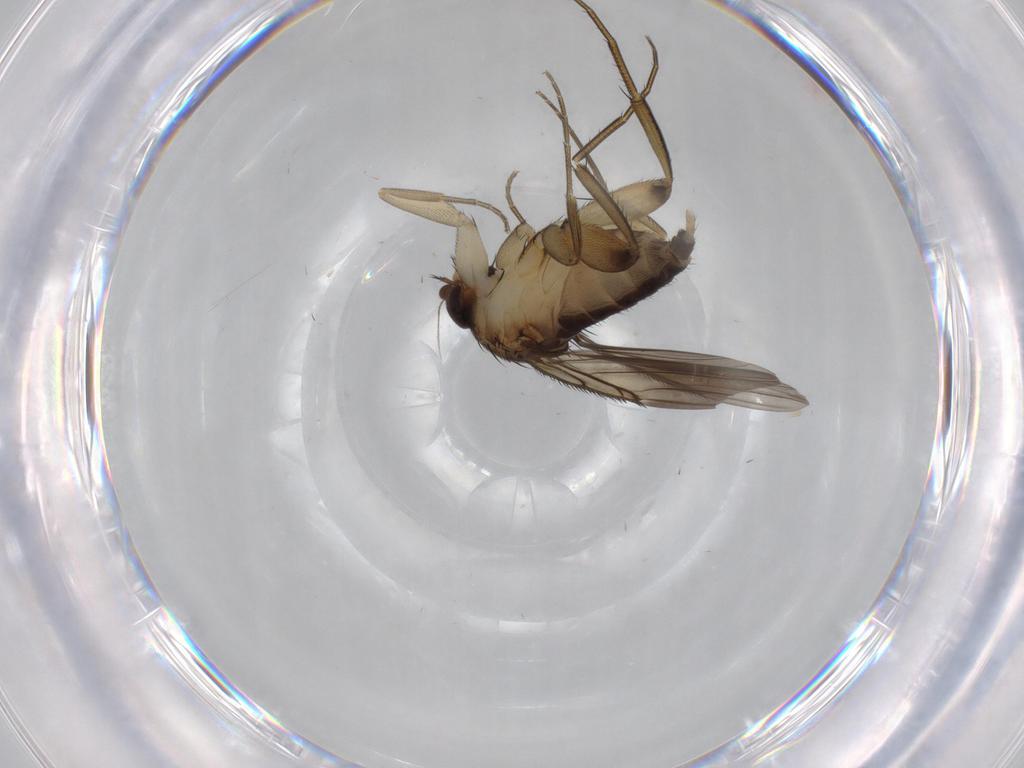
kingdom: Animalia
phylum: Arthropoda
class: Insecta
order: Diptera
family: Phoridae
